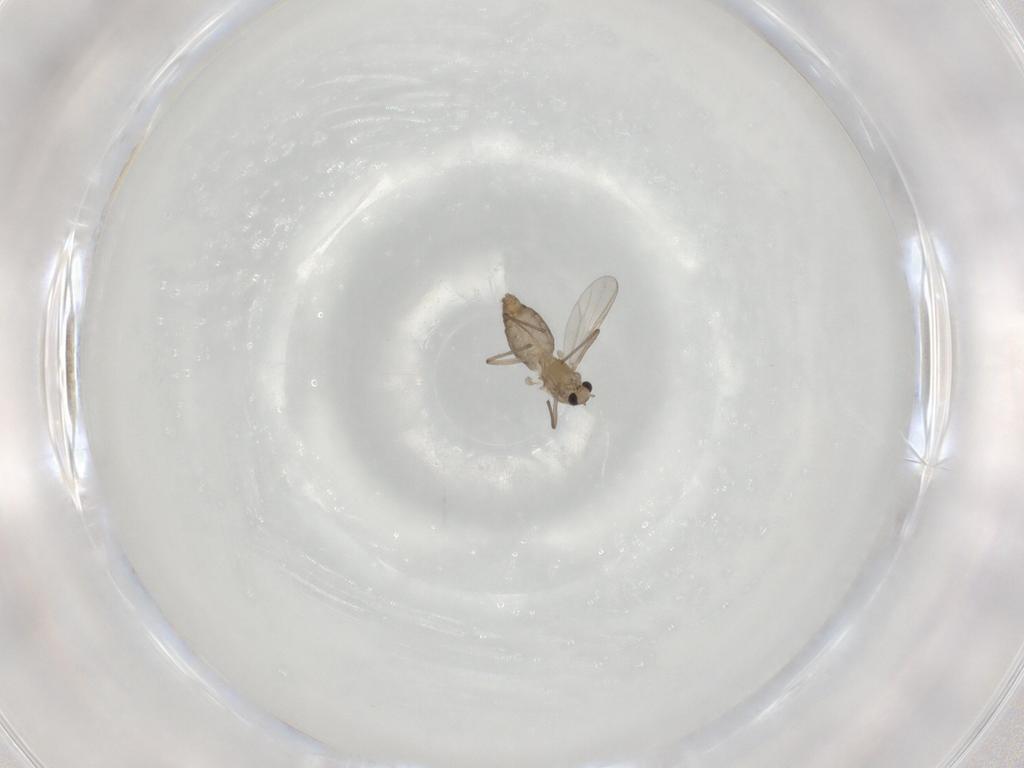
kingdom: Animalia
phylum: Arthropoda
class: Insecta
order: Diptera
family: Chironomidae
